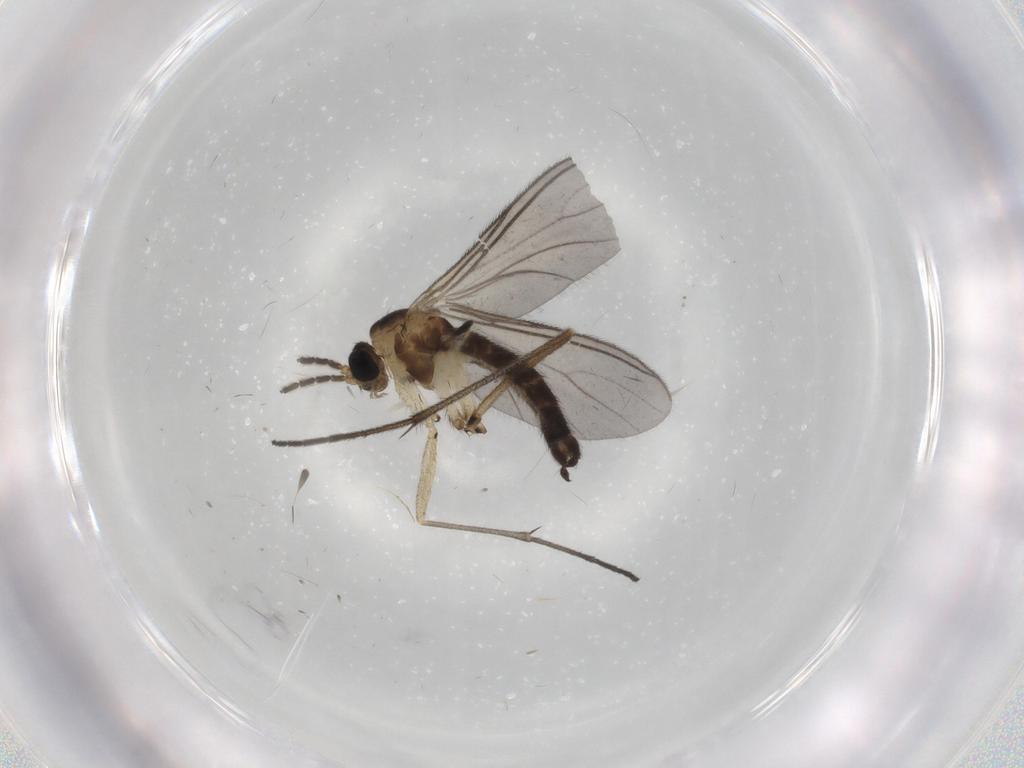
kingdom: Animalia
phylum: Arthropoda
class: Insecta
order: Diptera
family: Sciaridae
